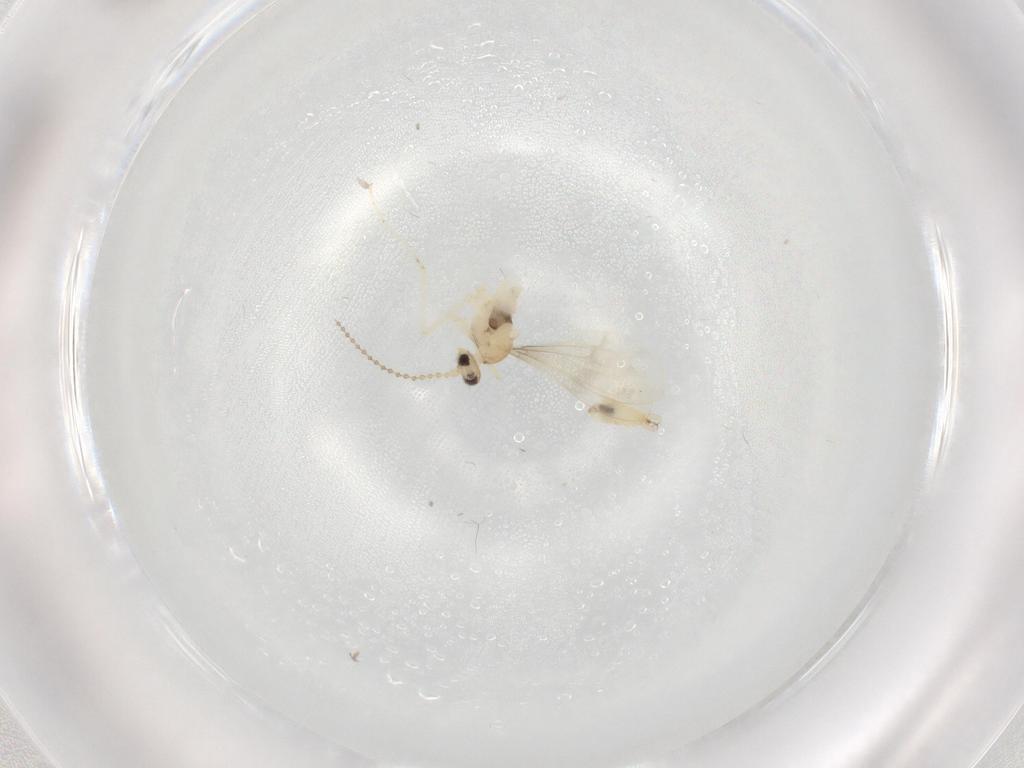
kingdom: Animalia
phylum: Arthropoda
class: Insecta
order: Diptera
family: Cecidomyiidae
